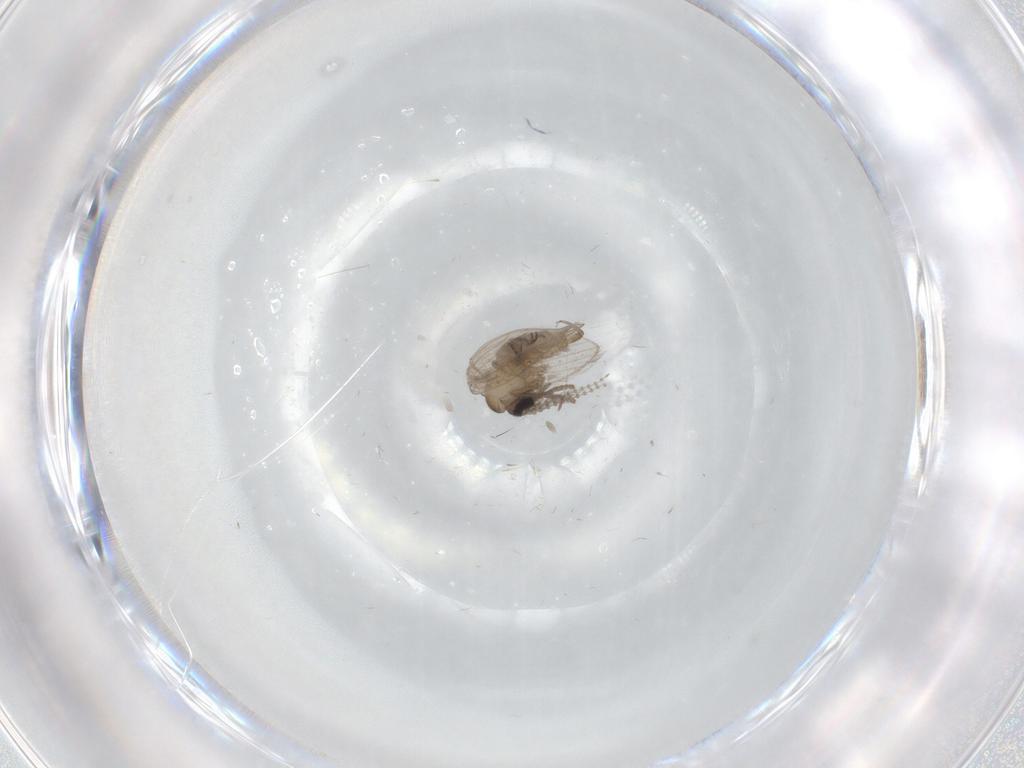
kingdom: Animalia
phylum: Arthropoda
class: Insecta
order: Diptera
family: Psychodidae
